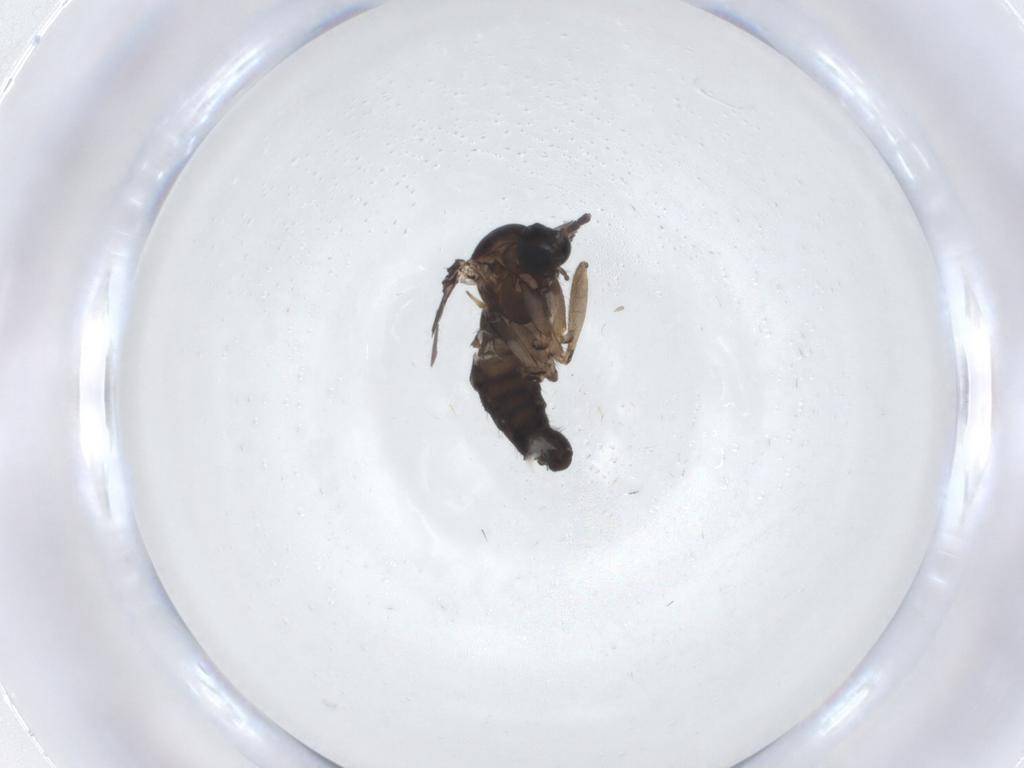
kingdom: Animalia
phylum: Arthropoda
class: Insecta
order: Diptera
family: Sciaridae
